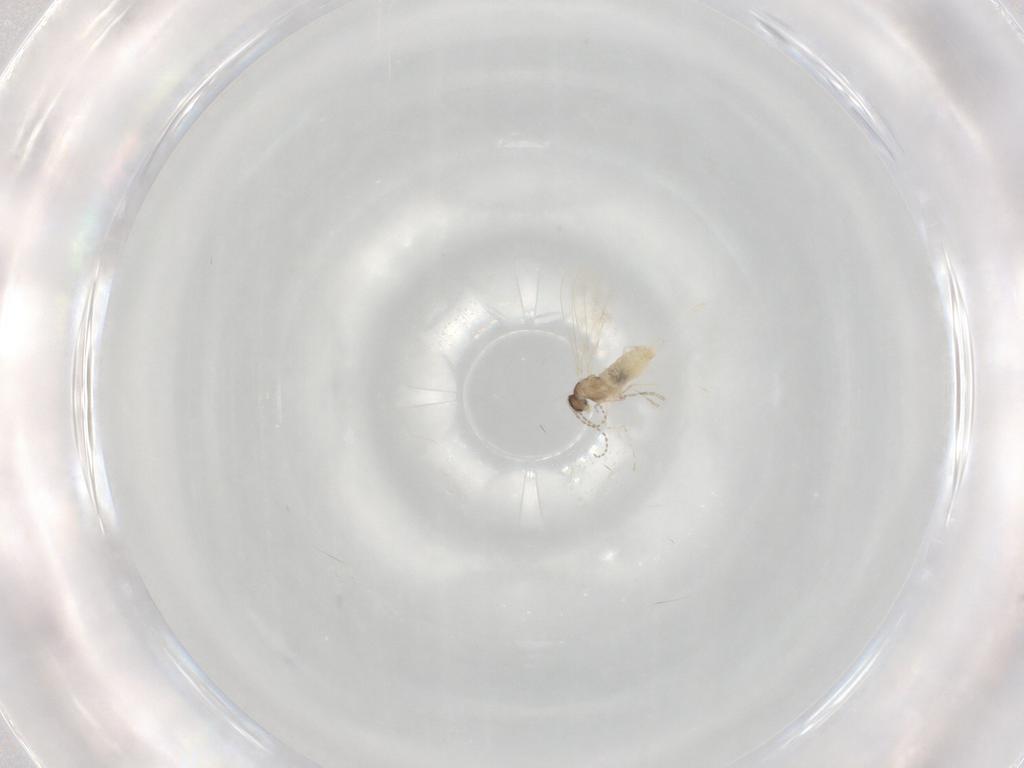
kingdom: Animalia
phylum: Arthropoda
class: Insecta
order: Diptera
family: Cecidomyiidae
